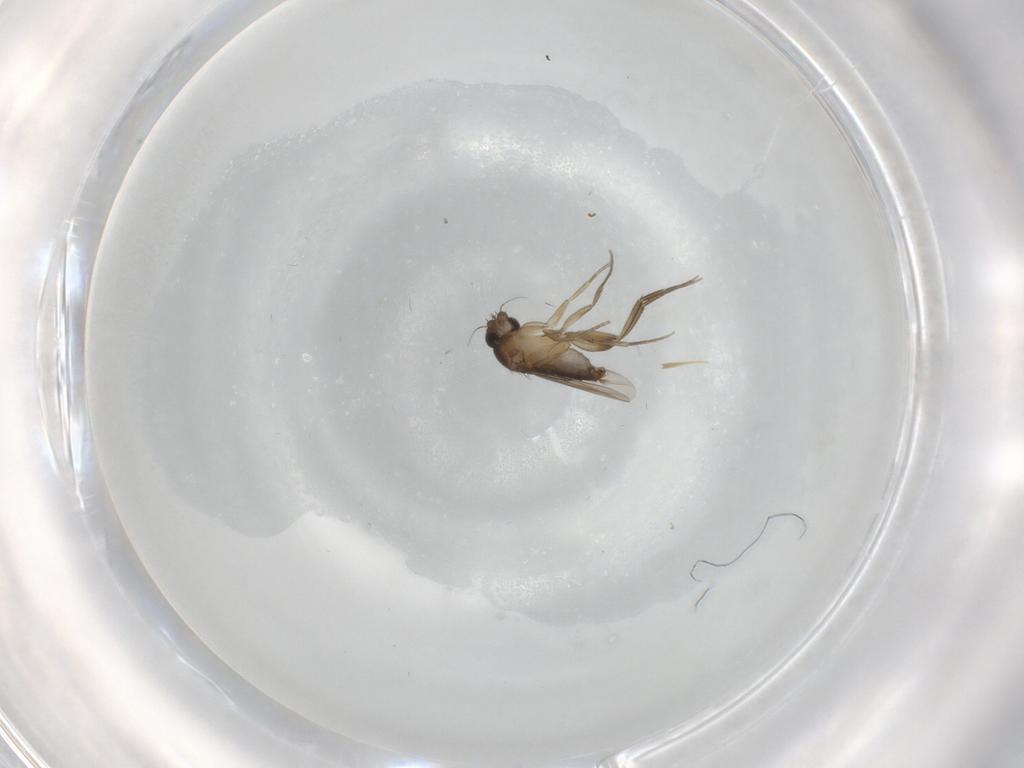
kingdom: Animalia
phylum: Arthropoda
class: Insecta
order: Diptera
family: Phoridae
